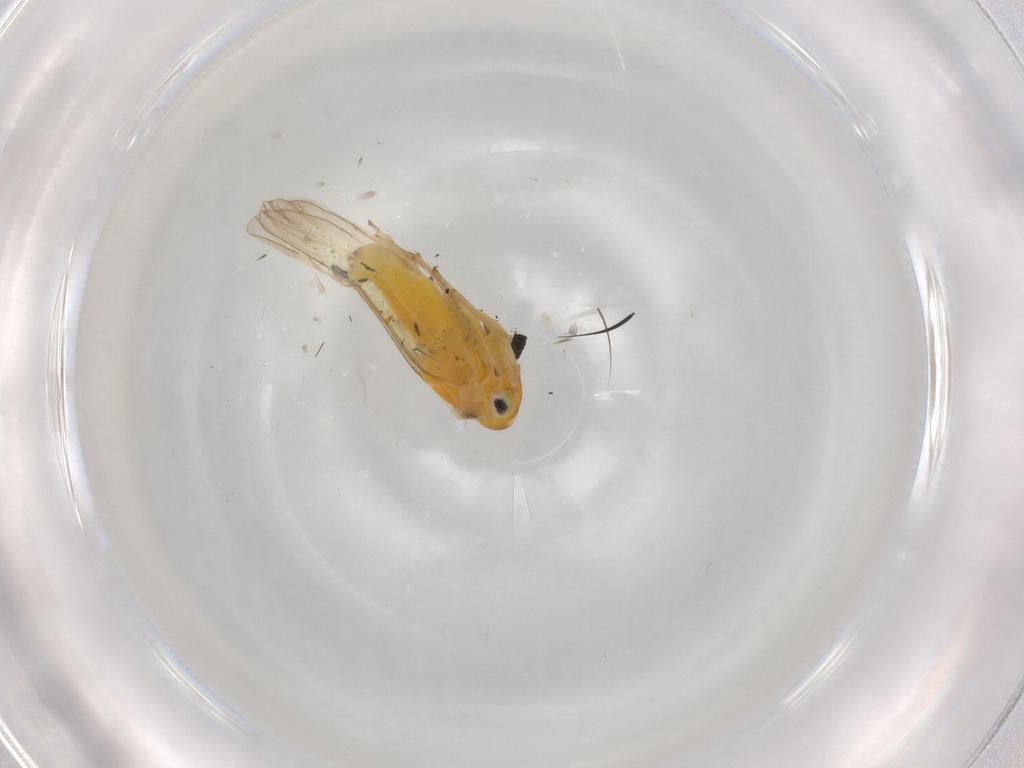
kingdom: Animalia
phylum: Arthropoda
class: Insecta
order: Hemiptera
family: Cicadellidae
